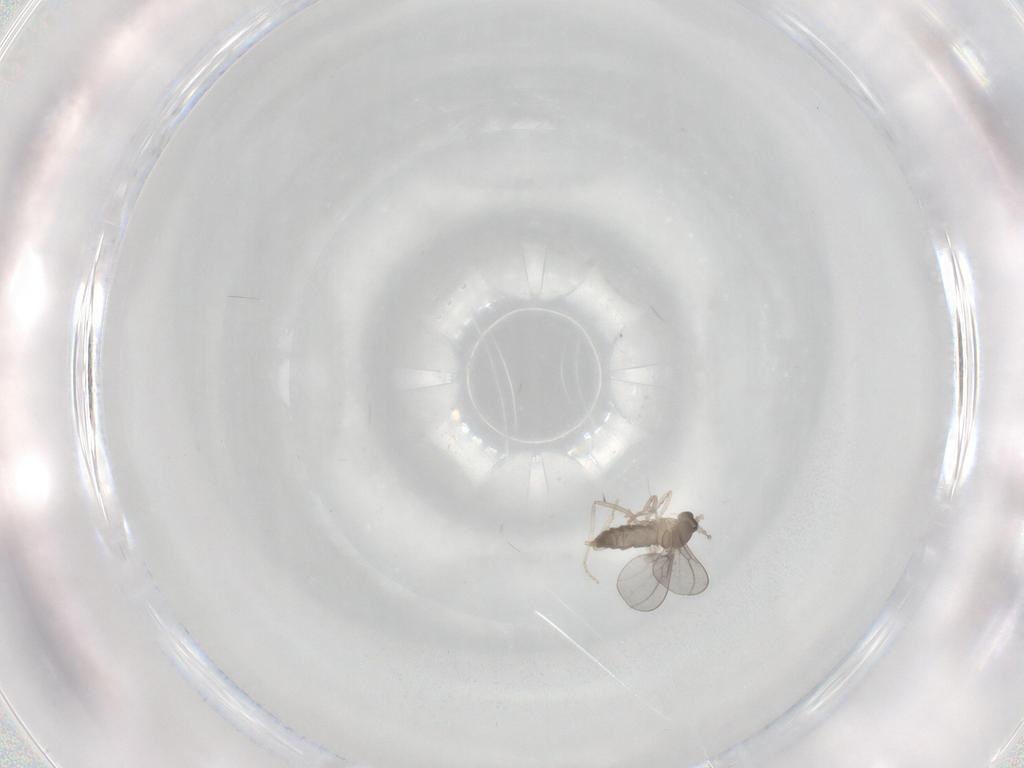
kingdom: Animalia
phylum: Arthropoda
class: Insecta
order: Diptera
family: Cecidomyiidae
